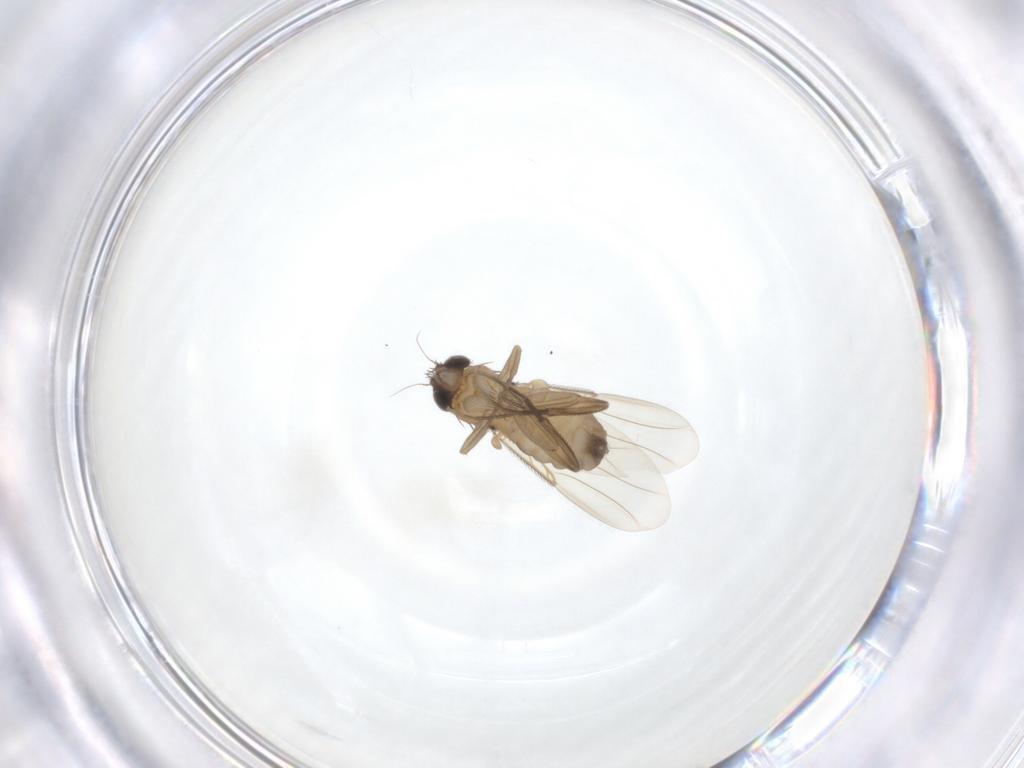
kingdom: Animalia
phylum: Arthropoda
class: Insecta
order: Diptera
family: Phoridae
